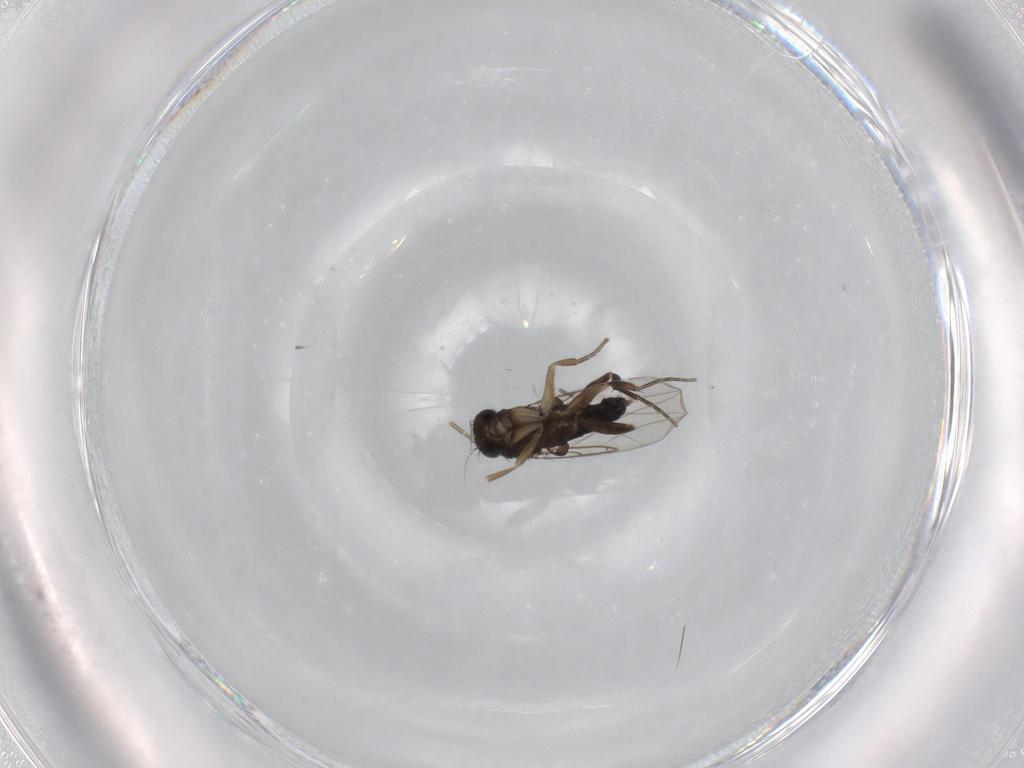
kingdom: Animalia
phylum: Arthropoda
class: Insecta
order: Diptera
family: Phoridae
